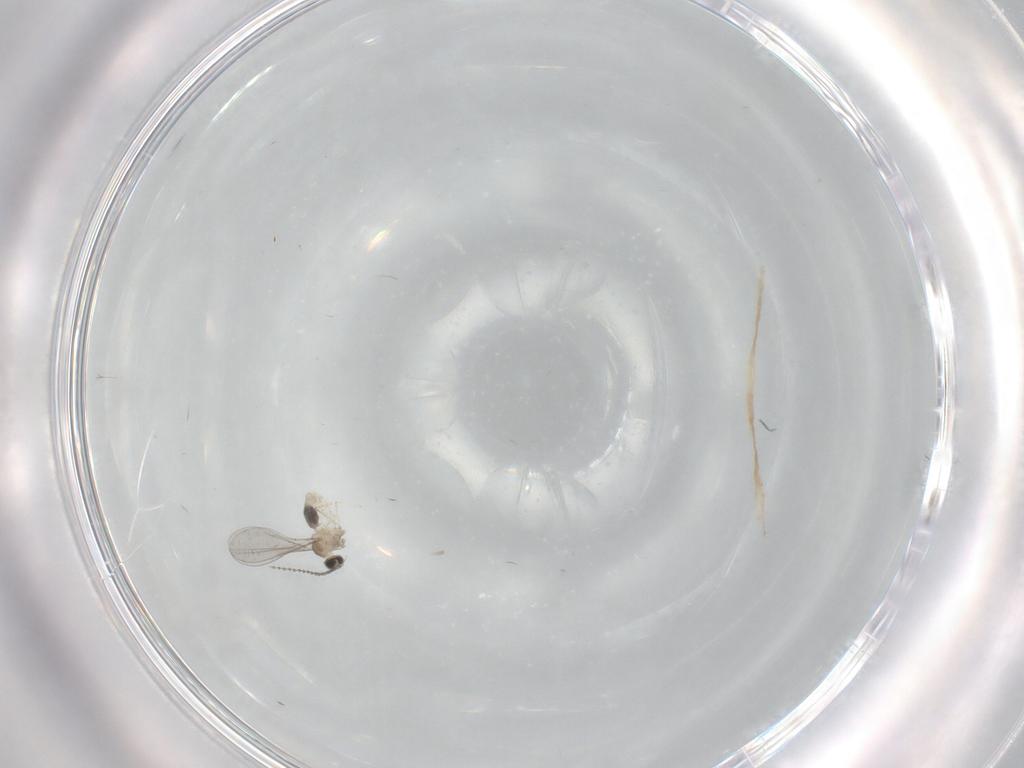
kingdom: Animalia
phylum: Arthropoda
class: Insecta
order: Diptera
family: Cecidomyiidae
